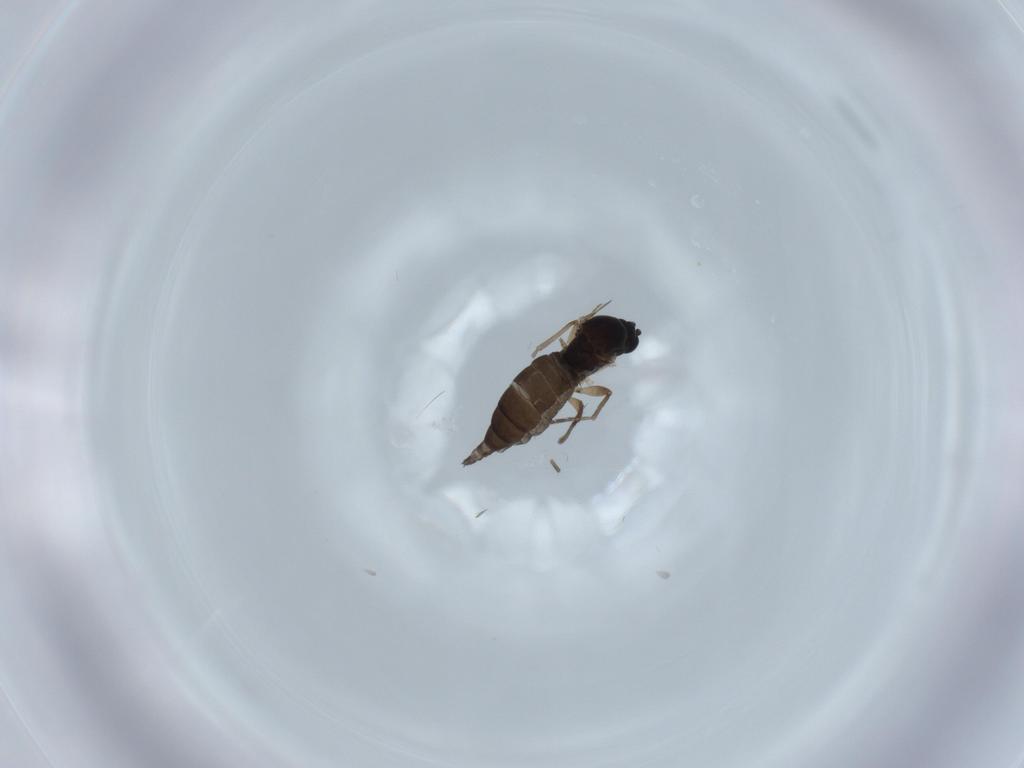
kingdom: Animalia
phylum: Arthropoda
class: Insecta
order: Diptera
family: Sciaridae
